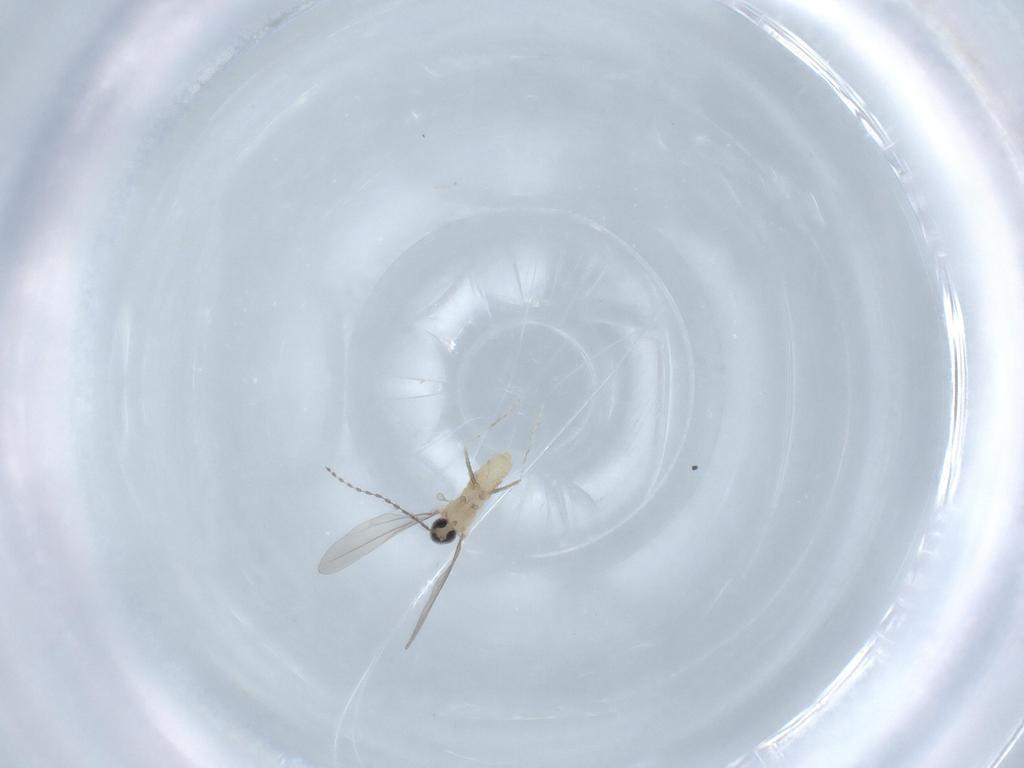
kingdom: Animalia
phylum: Arthropoda
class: Insecta
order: Diptera
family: Cecidomyiidae
